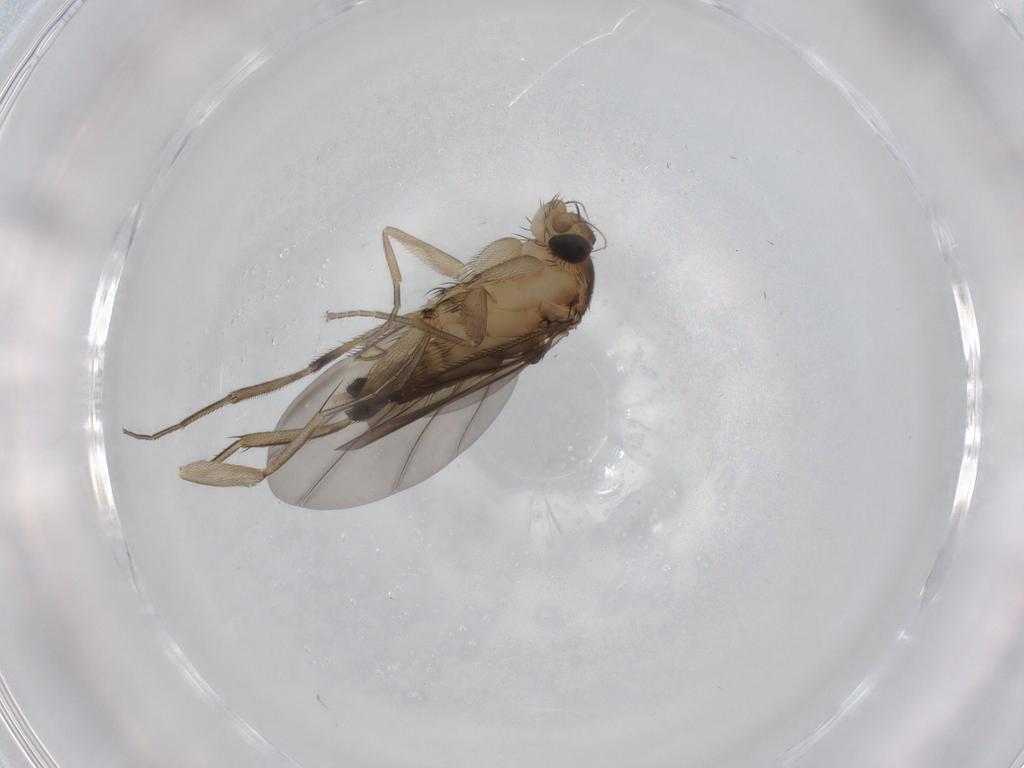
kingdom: Animalia
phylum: Arthropoda
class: Insecta
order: Diptera
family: Phoridae
